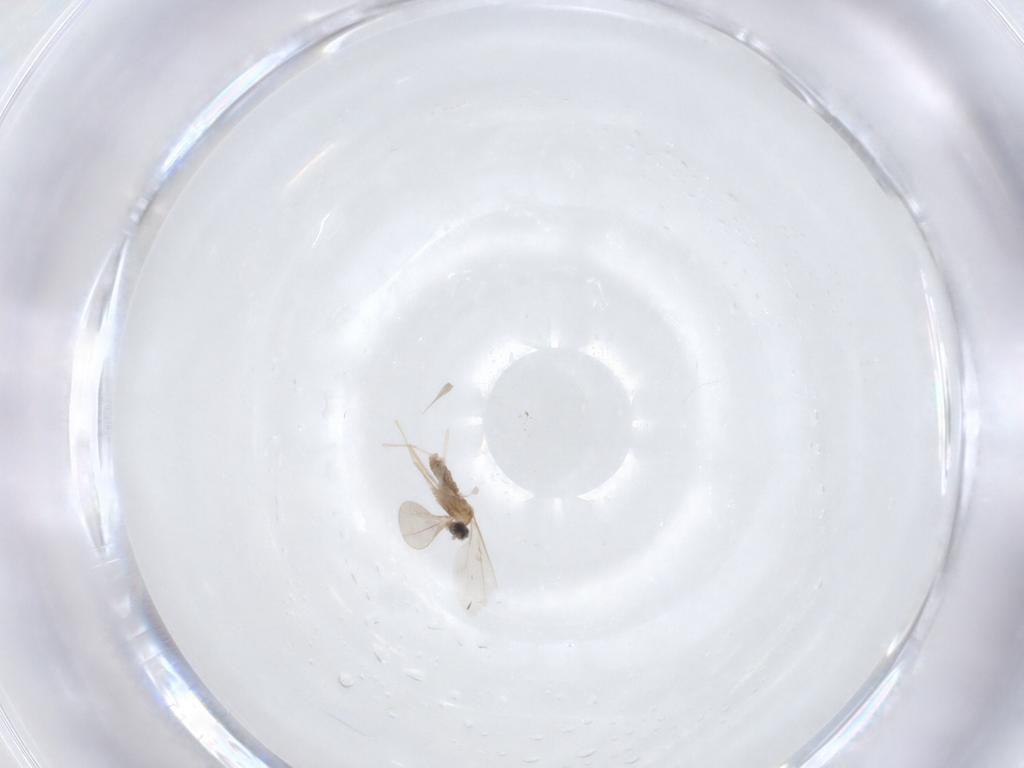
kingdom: Animalia
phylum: Arthropoda
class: Insecta
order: Diptera
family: Cecidomyiidae
